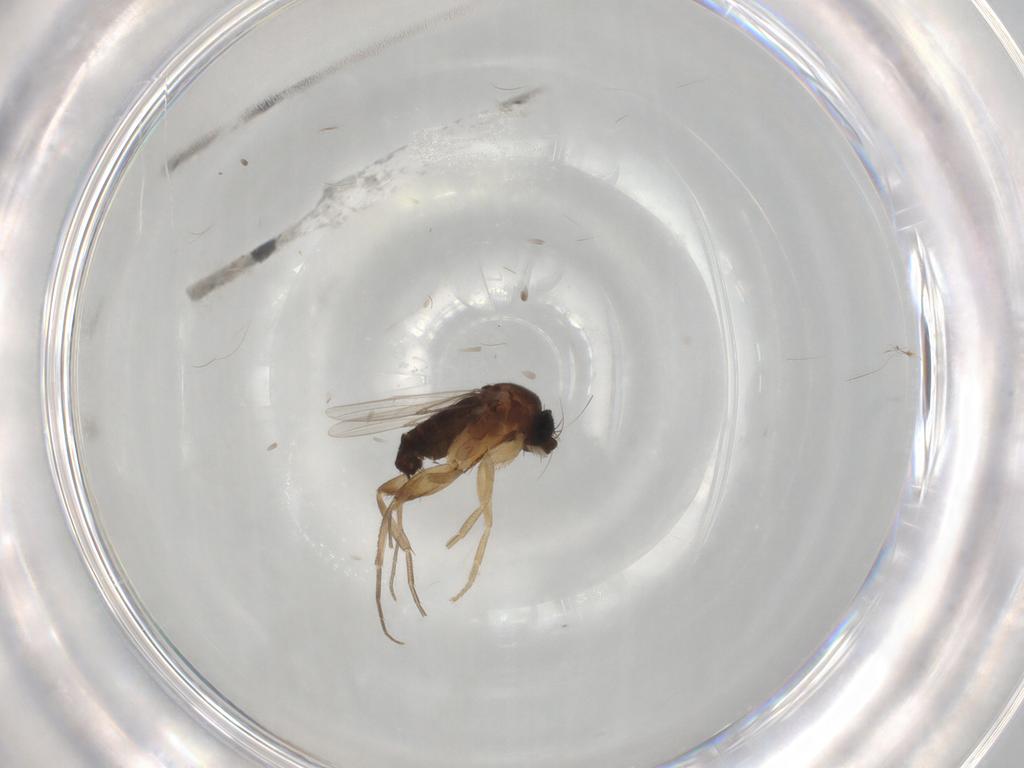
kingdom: Animalia
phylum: Arthropoda
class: Insecta
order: Diptera
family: Phoridae
